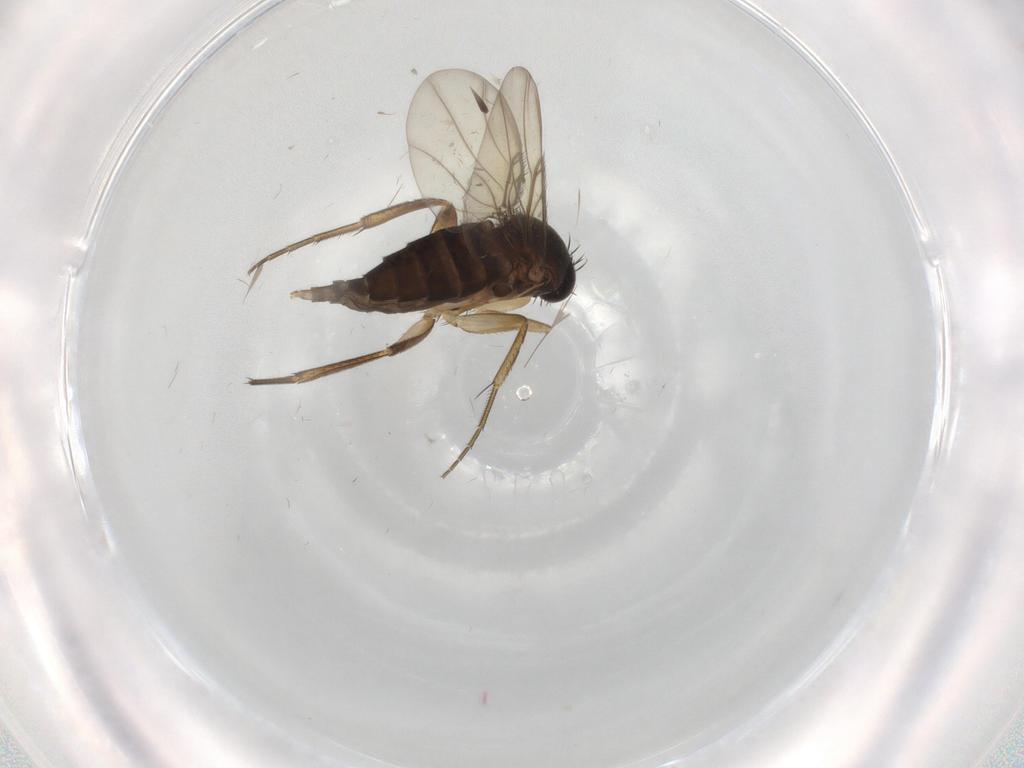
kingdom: Animalia
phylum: Arthropoda
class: Insecta
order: Diptera
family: Phoridae
